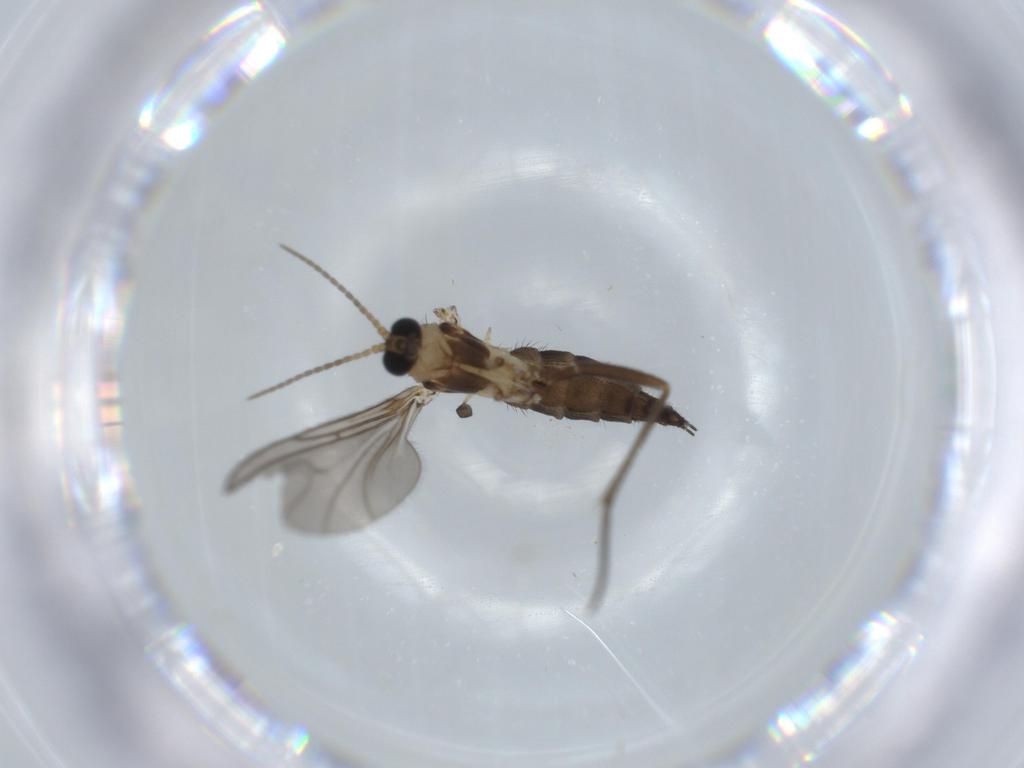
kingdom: Animalia
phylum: Arthropoda
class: Insecta
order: Diptera
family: Sciaridae
